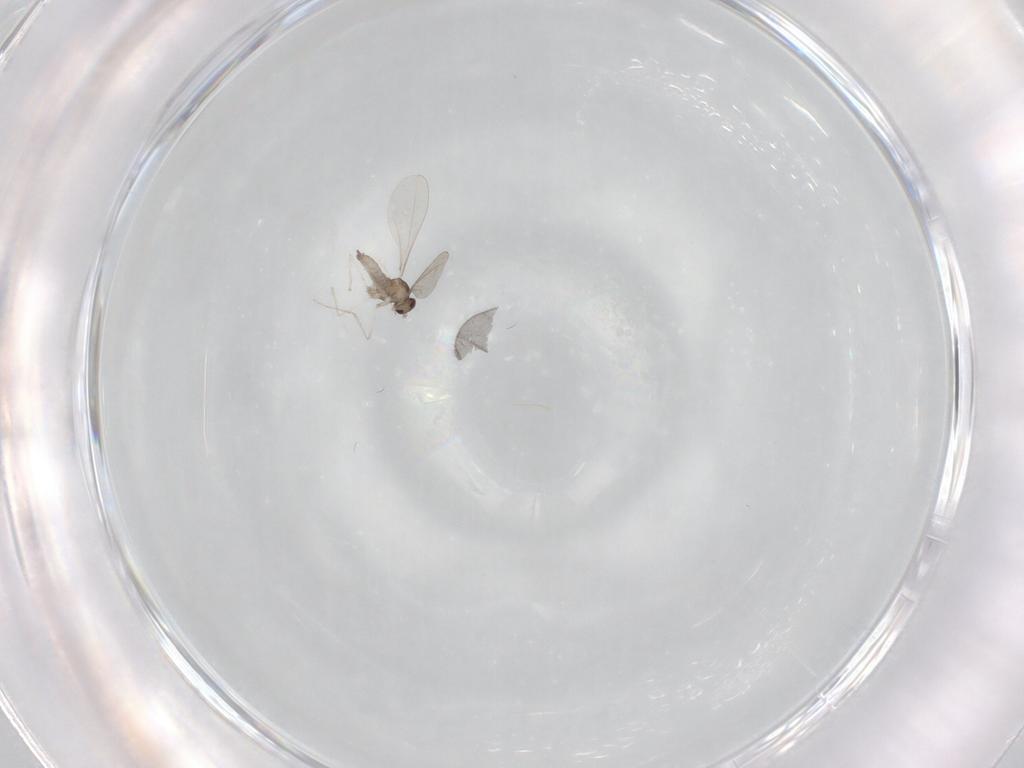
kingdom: Animalia
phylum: Arthropoda
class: Insecta
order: Diptera
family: Cecidomyiidae
